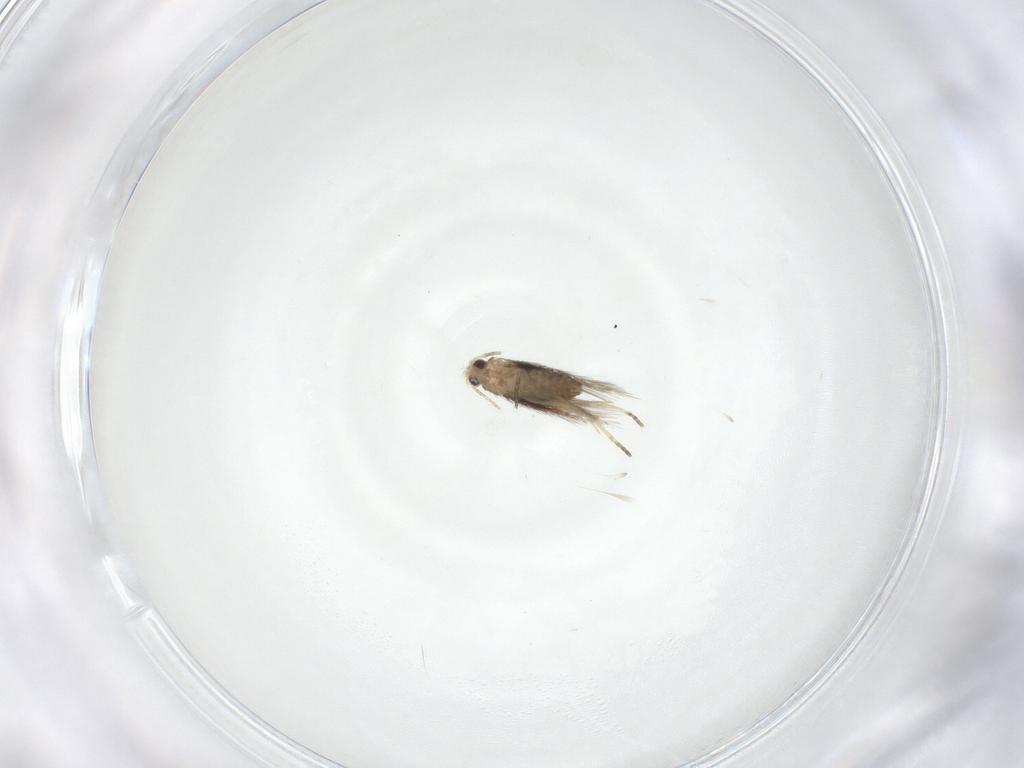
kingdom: Animalia
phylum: Arthropoda
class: Insecta
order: Lepidoptera
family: Nepticulidae
